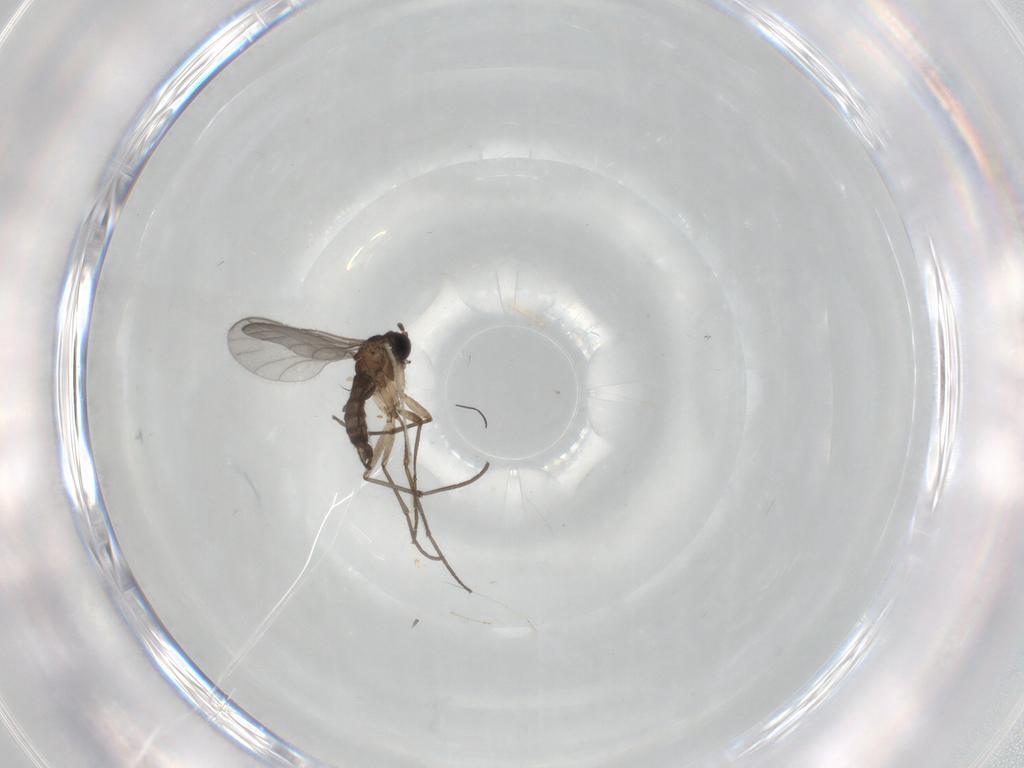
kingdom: Animalia
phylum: Arthropoda
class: Insecta
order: Diptera
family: Sciaridae
